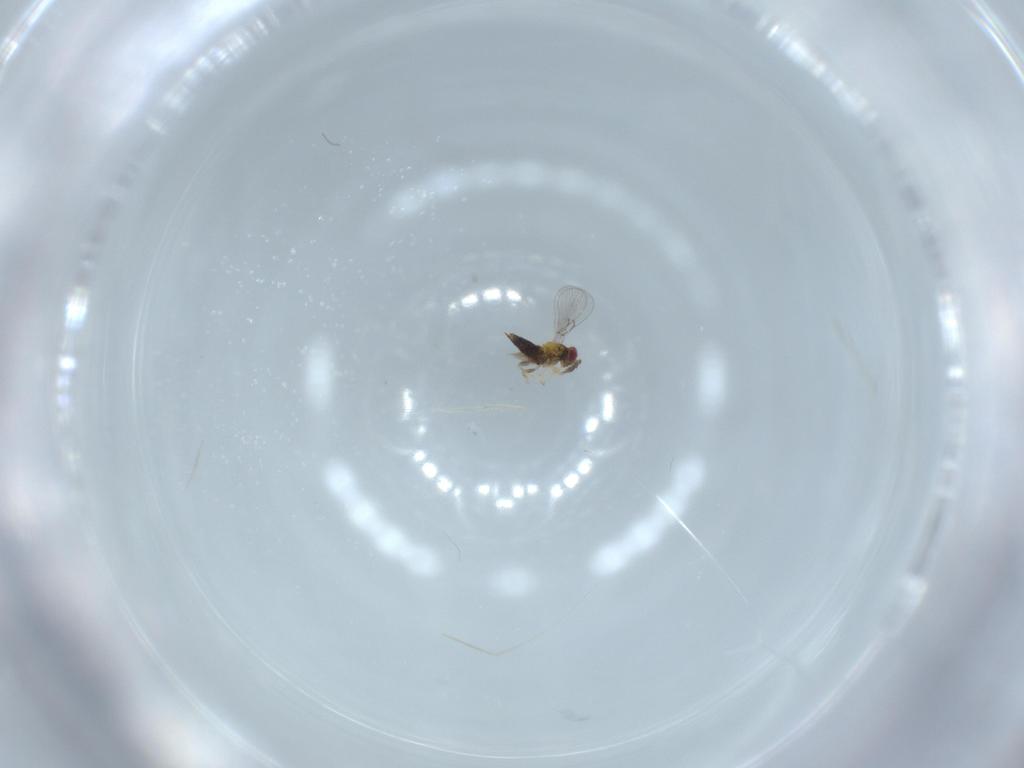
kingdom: Animalia
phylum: Arthropoda
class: Insecta
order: Hymenoptera
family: Trichogrammatidae
